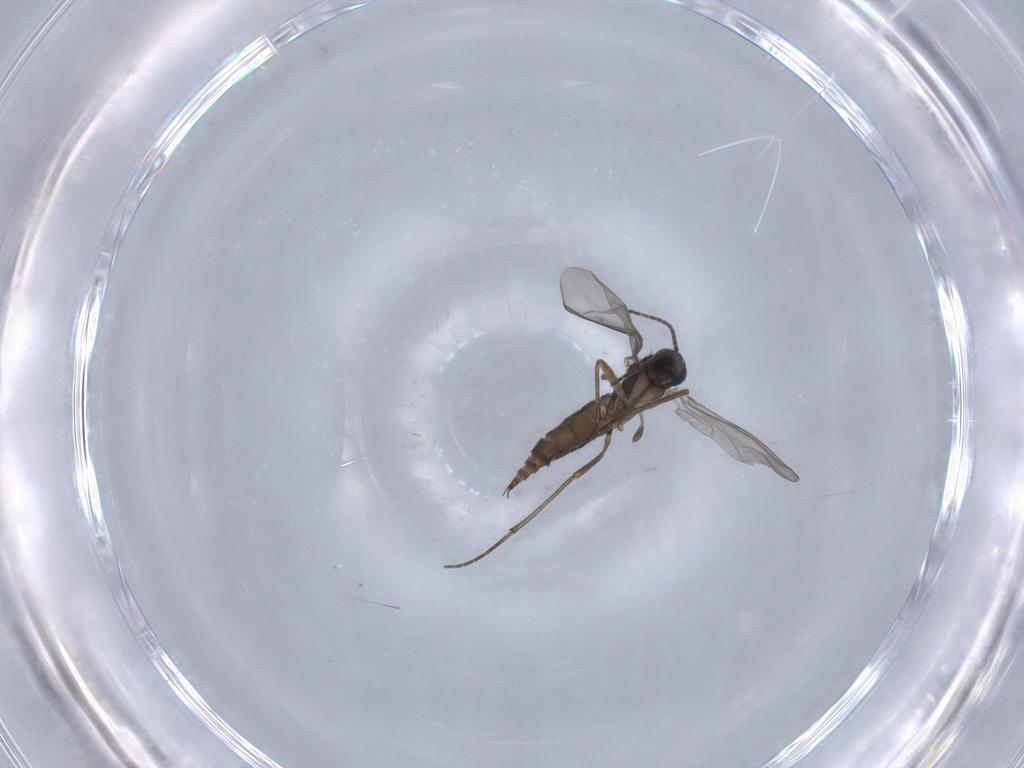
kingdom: Animalia
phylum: Arthropoda
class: Insecta
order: Diptera
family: Sciaridae
